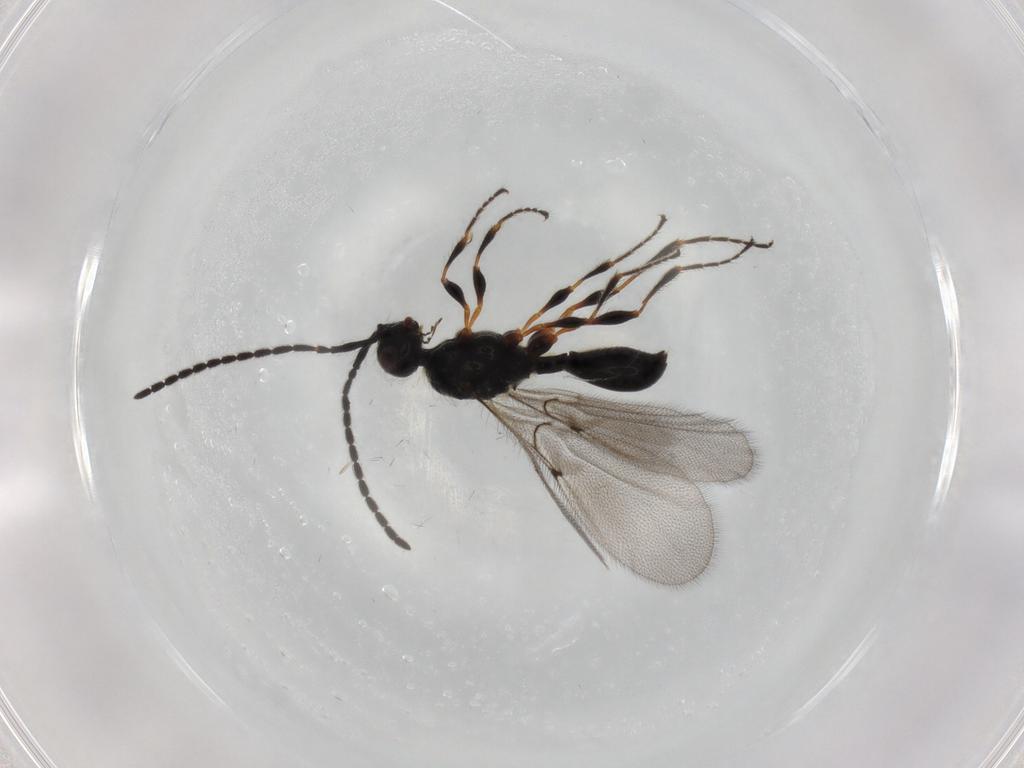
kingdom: Animalia
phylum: Arthropoda
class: Insecta
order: Hymenoptera
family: Diapriidae
